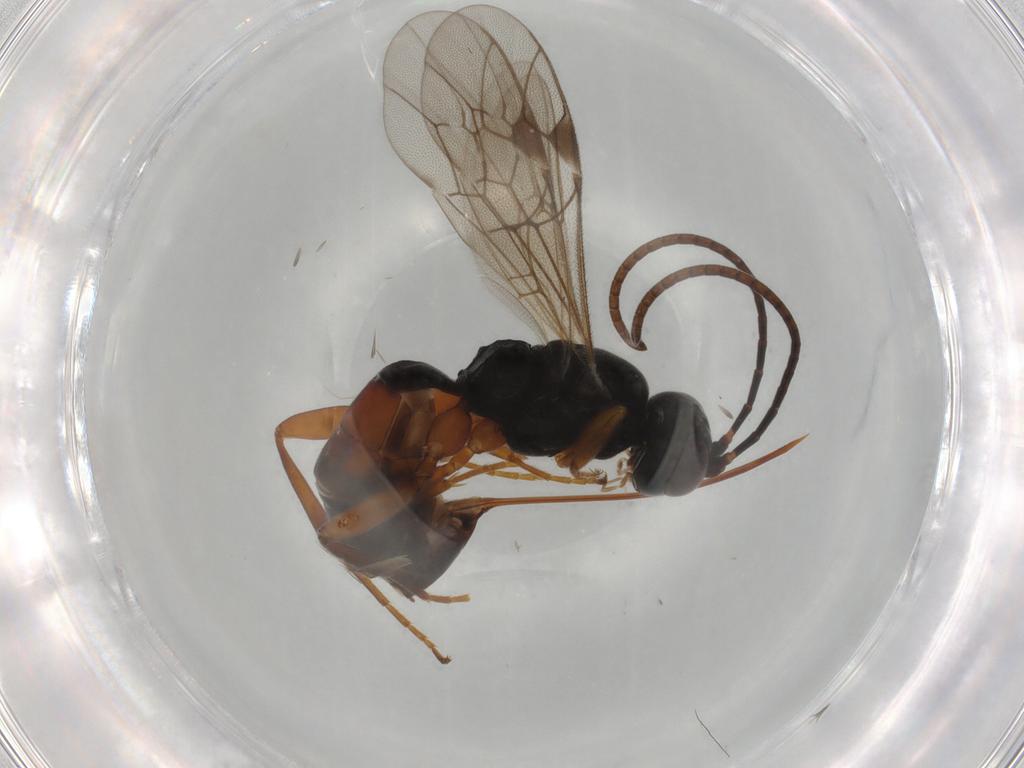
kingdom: Animalia
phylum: Arthropoda
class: Insecta
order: Hymenoptera
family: Ichneumonidae
